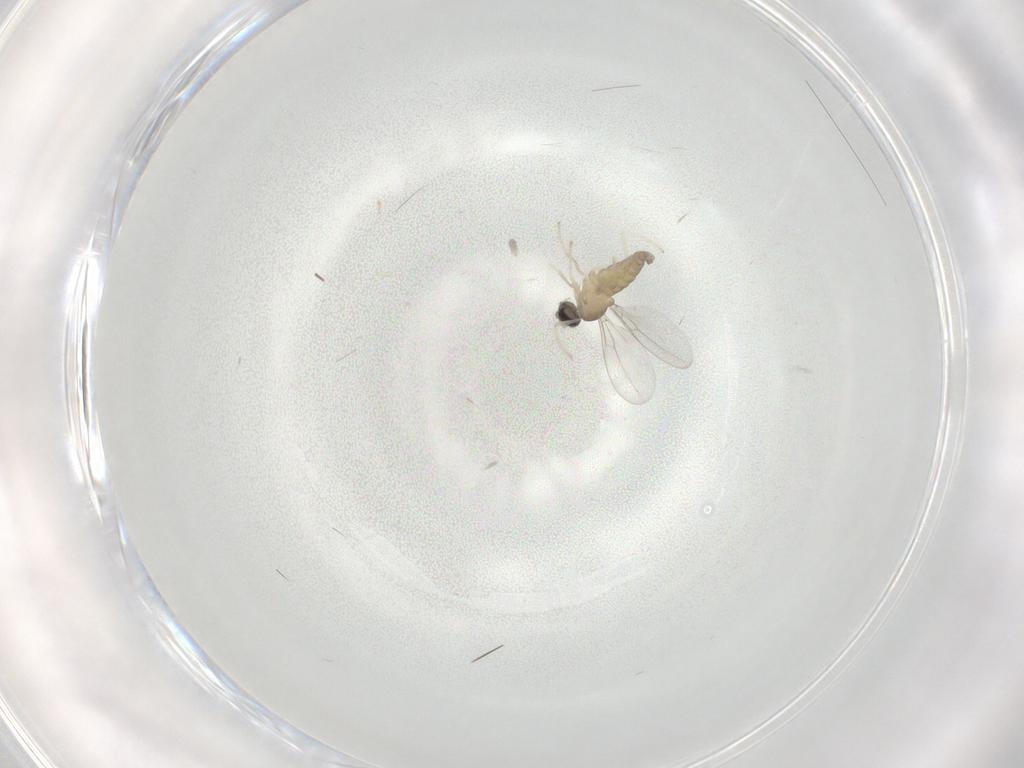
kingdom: Animalia
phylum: Arthropoda
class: Insecta
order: Diptera
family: Cecidomyiidae
